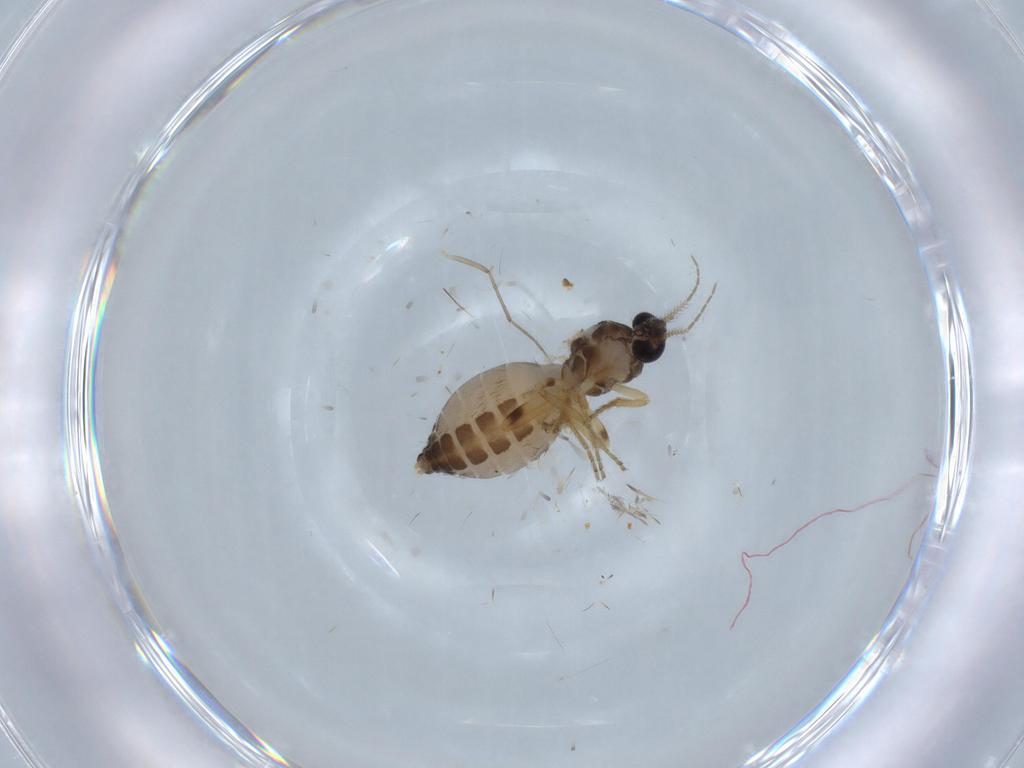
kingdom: Animalia
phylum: Arthropoda
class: Insecta
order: Diptera
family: Ceratopogonidae
